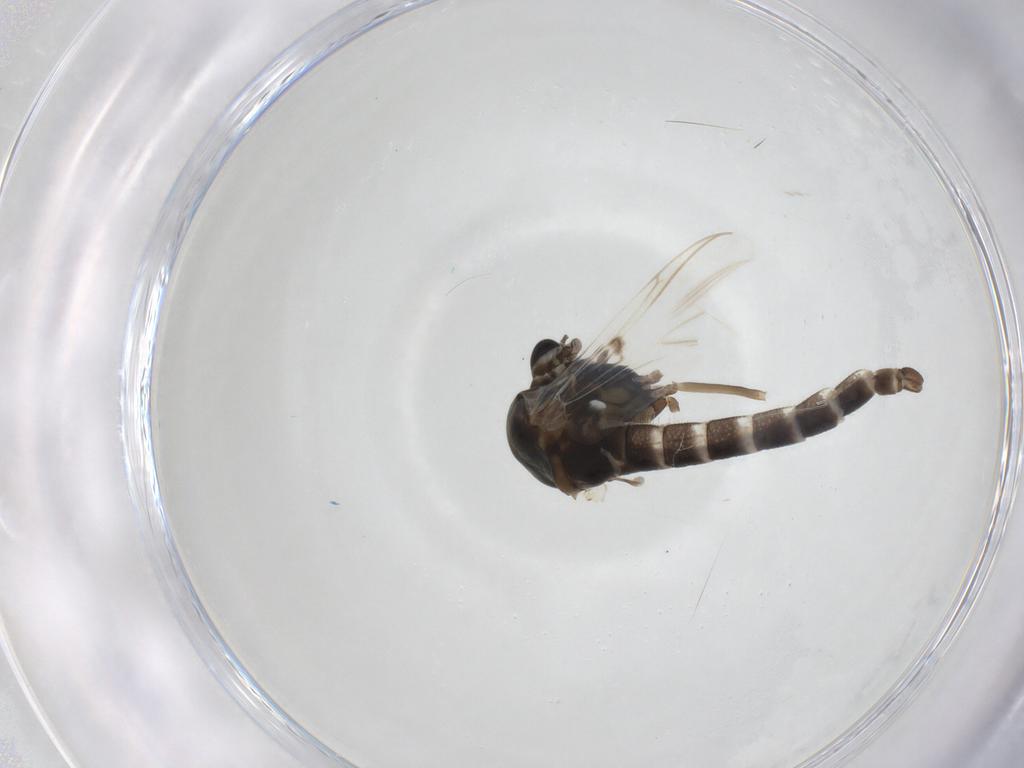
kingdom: Animalia
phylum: Arthropoda
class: Insecta
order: Diptera
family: Chironomidae
